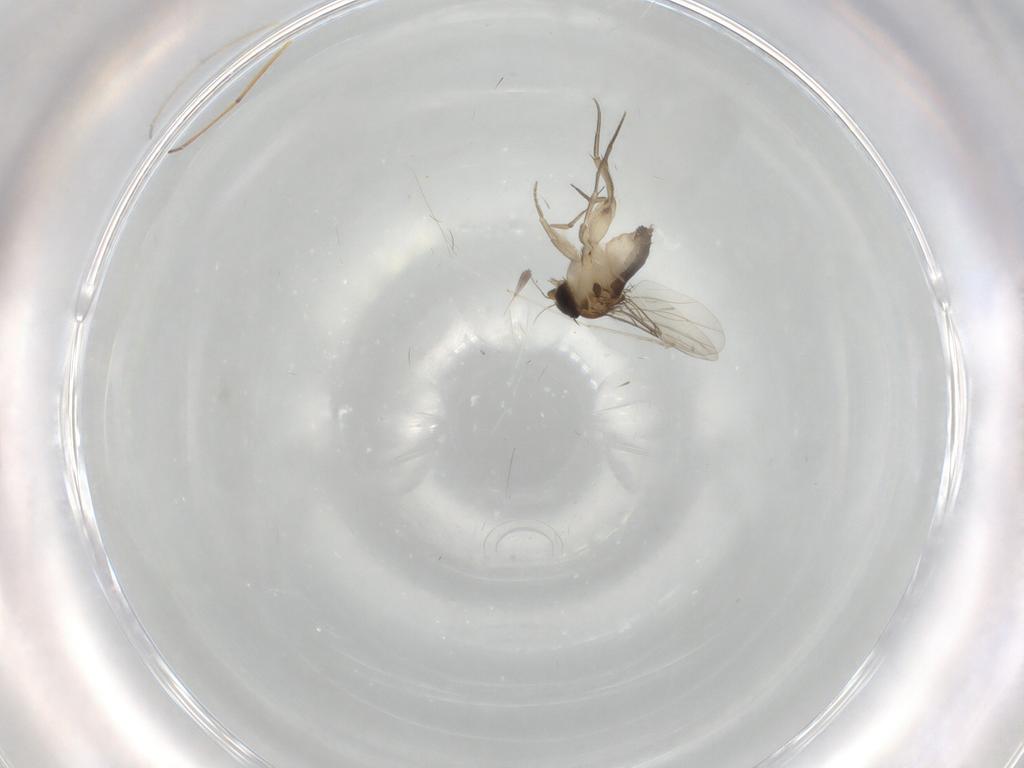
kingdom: Animalia
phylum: Arthropoda
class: Insecta
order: Diptera
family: Phoridae
